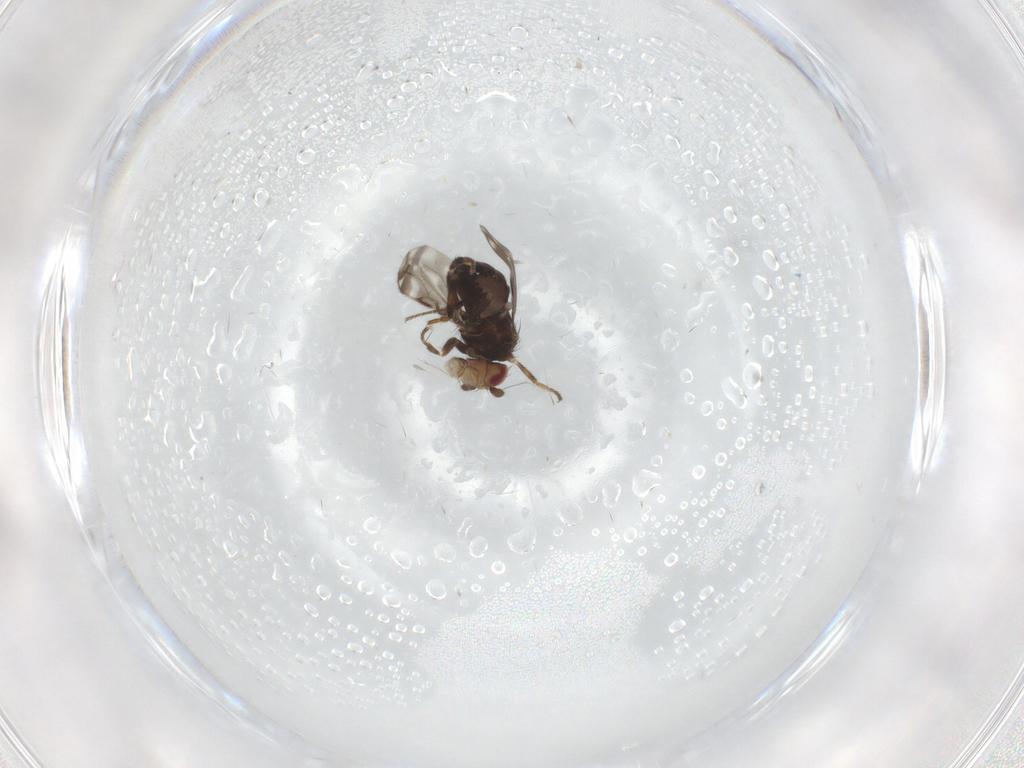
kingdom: Animalia
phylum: Arthropoda
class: Insecta
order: Diptera
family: Sphaeroceridae
